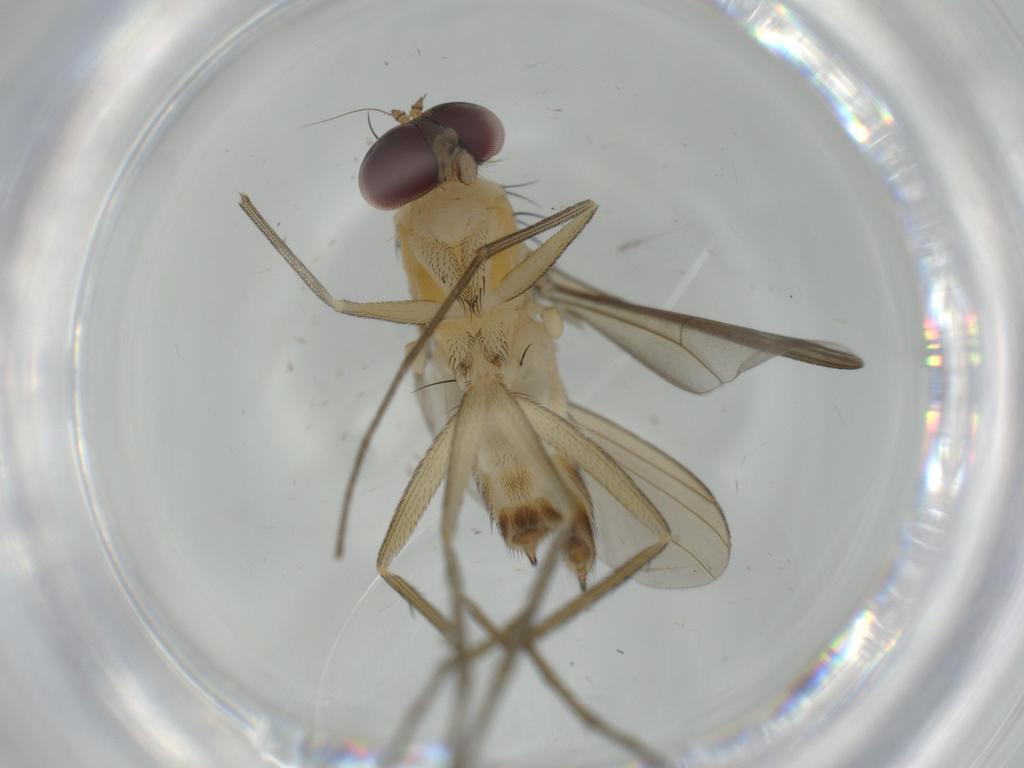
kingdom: Animalia
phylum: Arthropoda
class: Insecta
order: Diptera
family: Dolichopodidae
